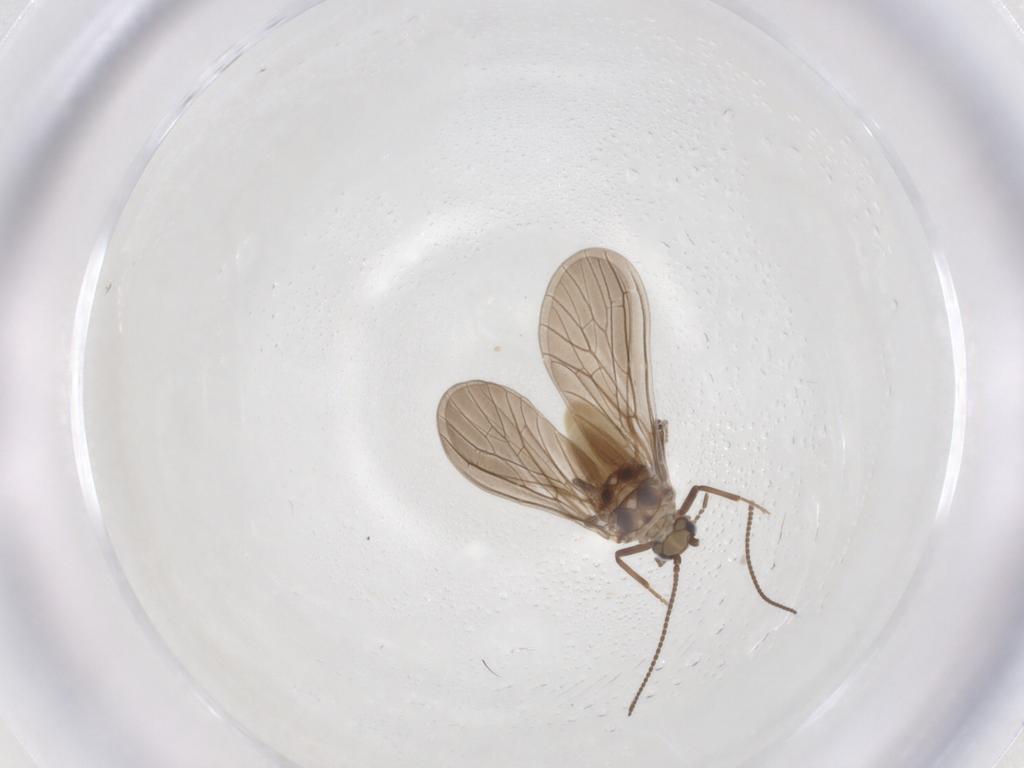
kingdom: Animalia
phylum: Arthropoda
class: Insecta
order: Neuroptera
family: Coniopterygidae
